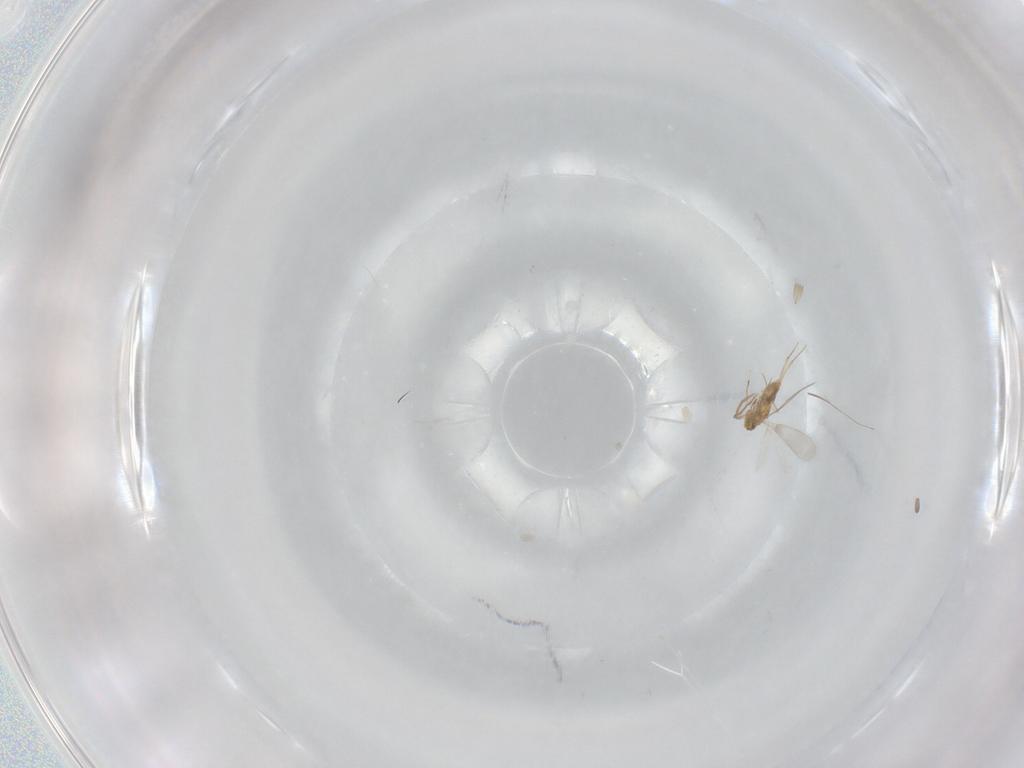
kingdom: Animalia
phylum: Arthropoda
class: Insecta
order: Hymenoptera
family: Aphelinidae
